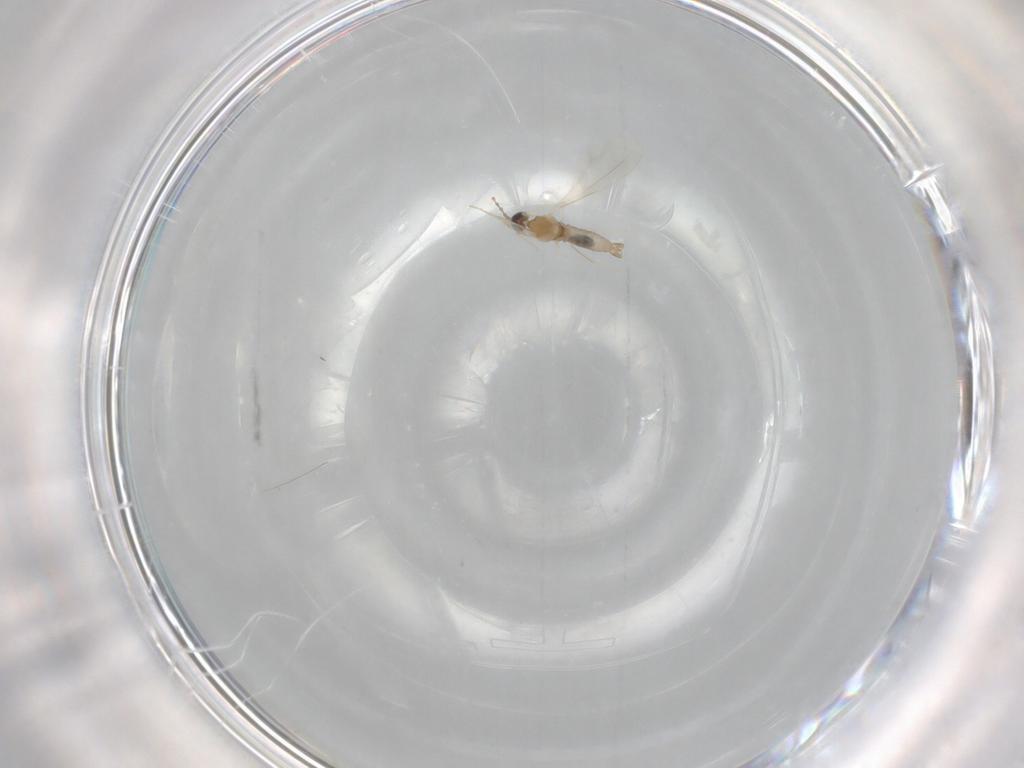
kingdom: Animalia
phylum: Arthropoda
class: Insecta
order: Diptera
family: Cecidomyiidae
